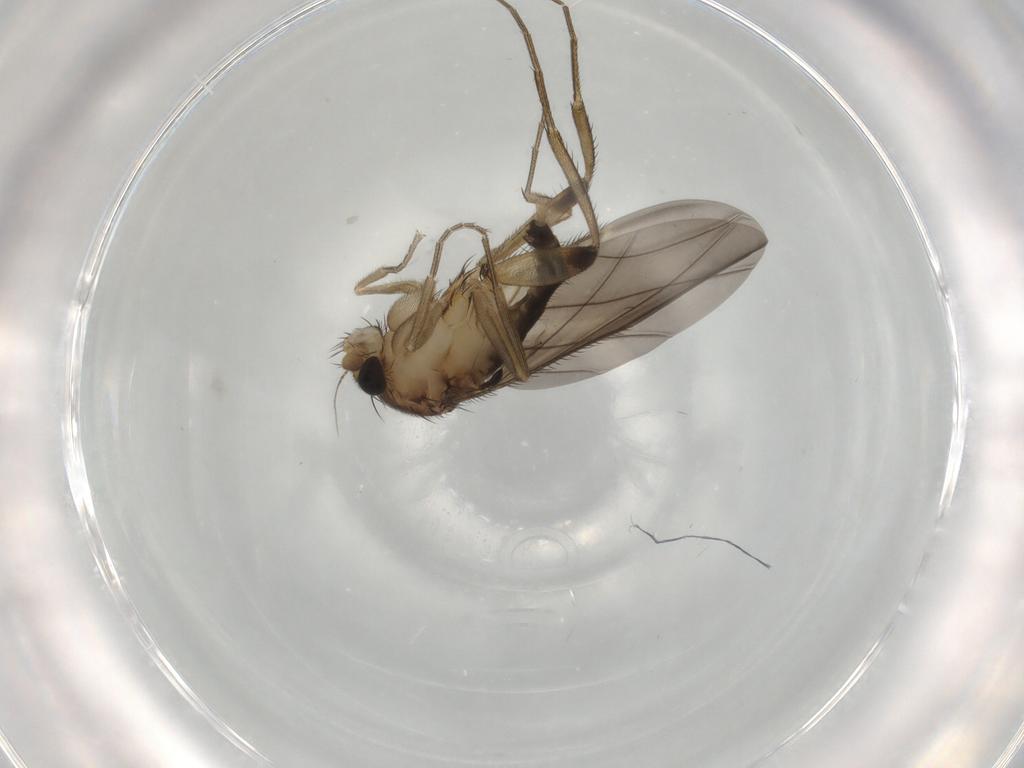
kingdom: Animalia
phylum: Arthropoda
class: Insecta
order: Diptera
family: Phoridae
